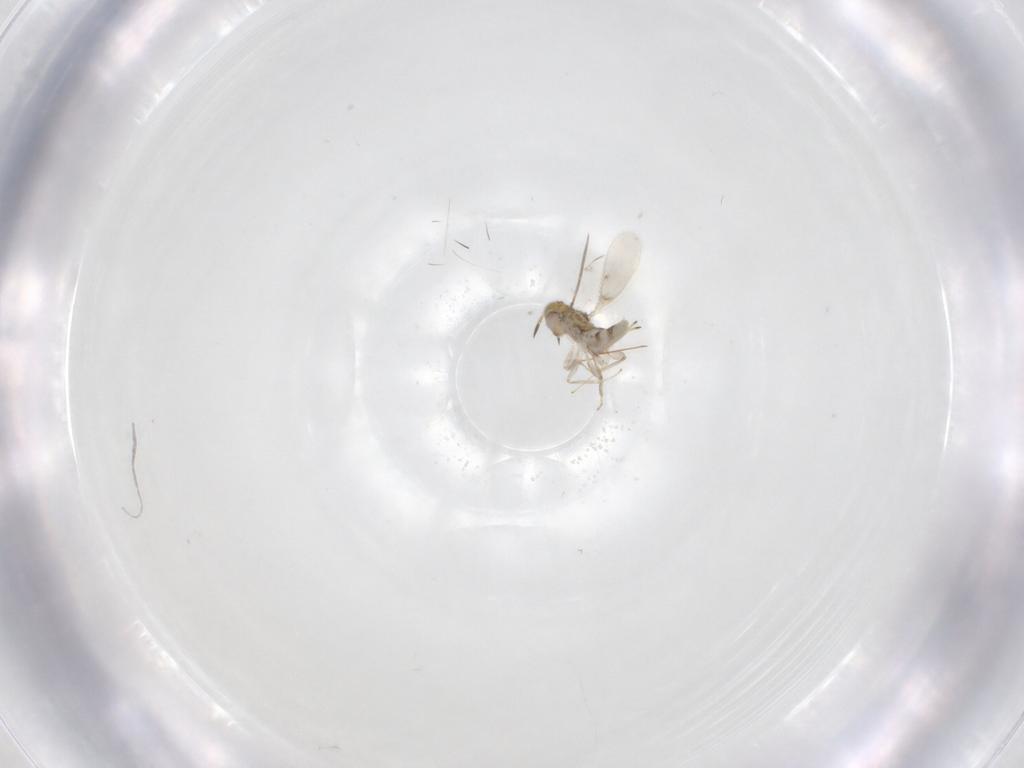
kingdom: Animalia
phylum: Arthropoda
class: Insecta
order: Hymenoptera
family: Aphelinidae
